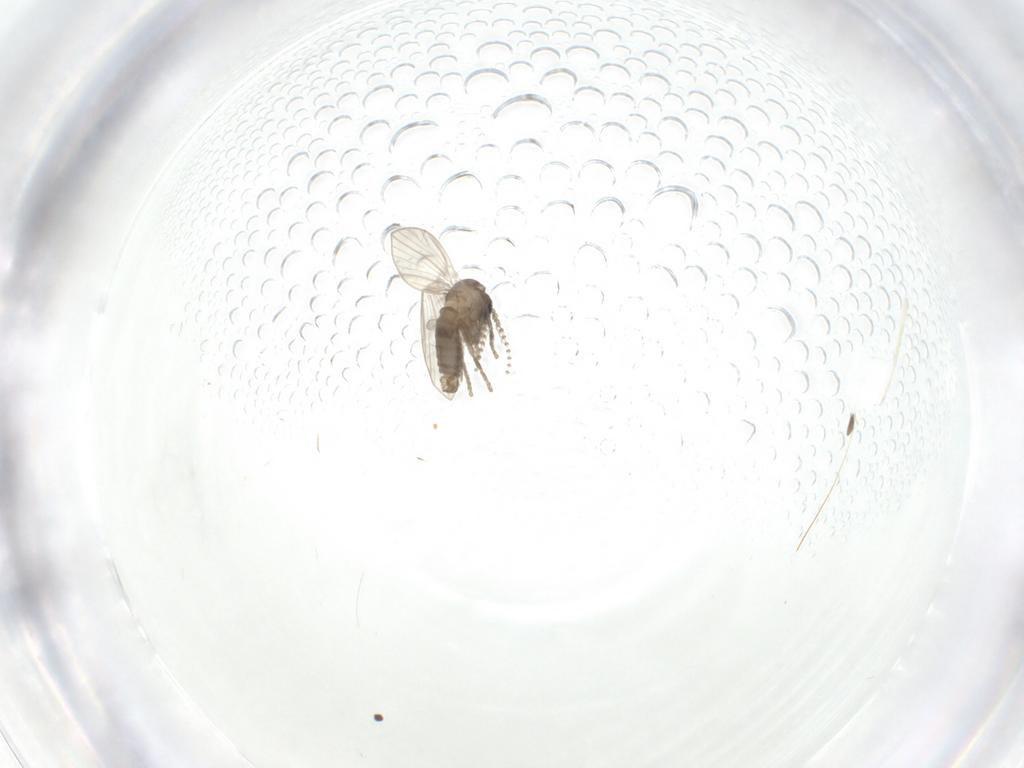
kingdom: Animalia
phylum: Arthropoda
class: Insecta
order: Diptera
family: Psychodidae
